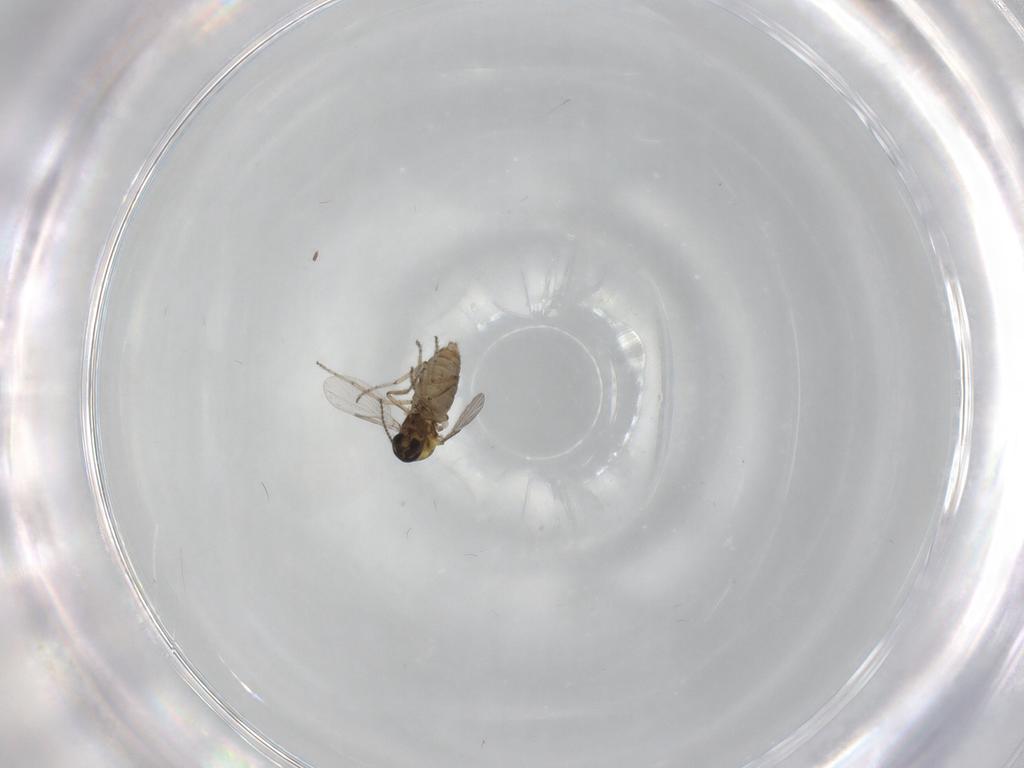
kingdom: Animalia
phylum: Arthropoda
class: Insecta
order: Diptera
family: Ceratopogonidae
